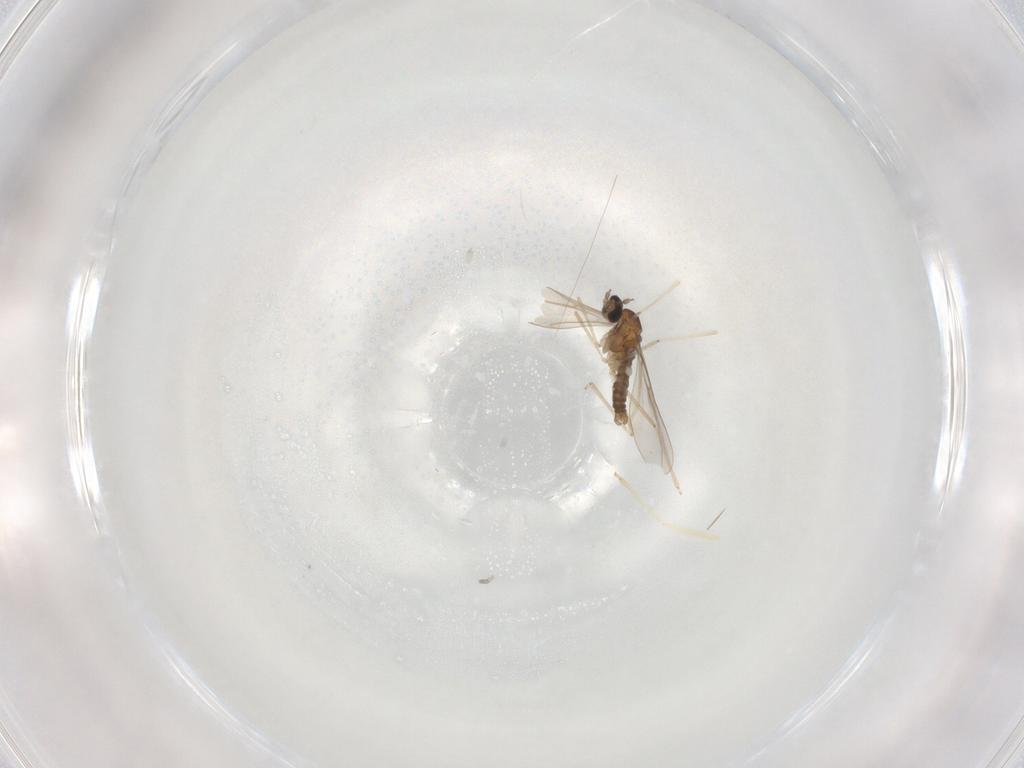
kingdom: Animalia
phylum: Arthropoda
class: Insecta
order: Diptera
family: Cecidomyiidae
